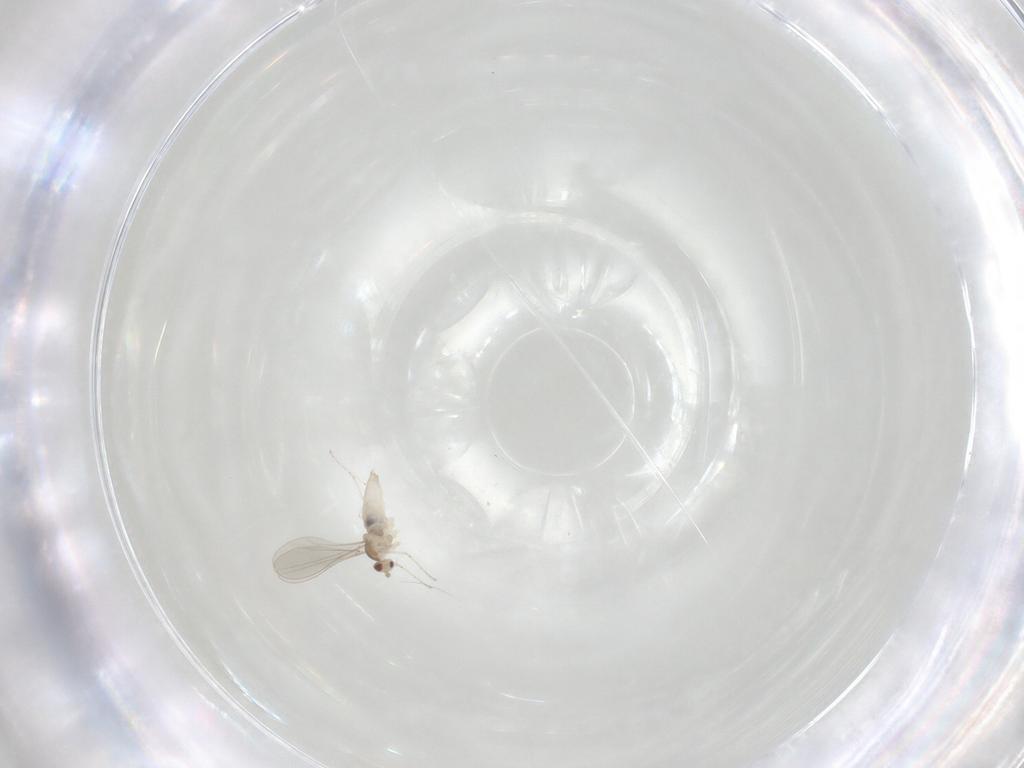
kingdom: Animalia
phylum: Arthropoda
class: Insecta
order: Diptera
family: Cecidomyiidae
